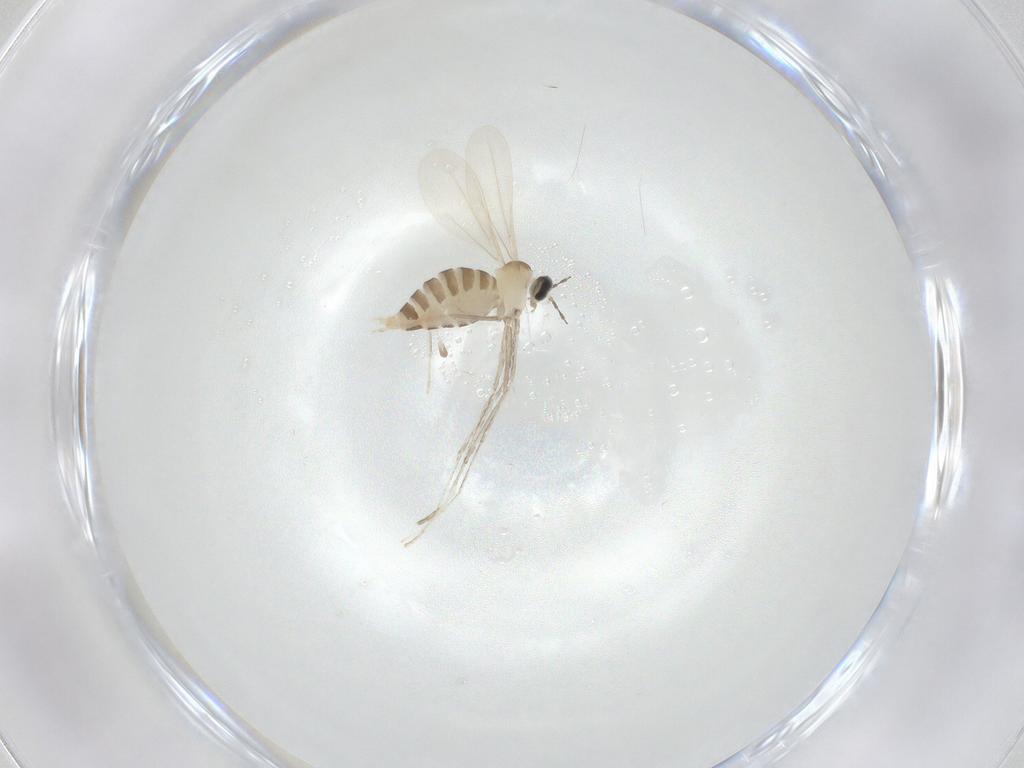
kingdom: Animalia
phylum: Arthropoda
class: Insecta
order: Diptera
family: Cecidomyiidae
